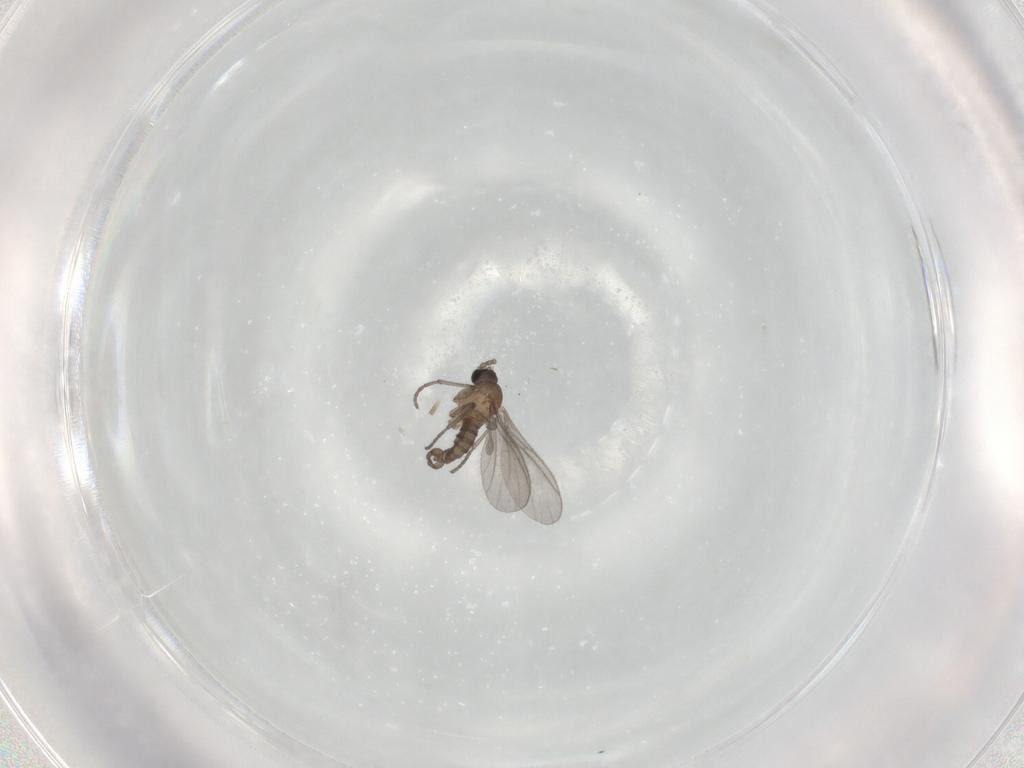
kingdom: Animalia
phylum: Arthropoda
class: Insecta
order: Diptera
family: Sciaridae
